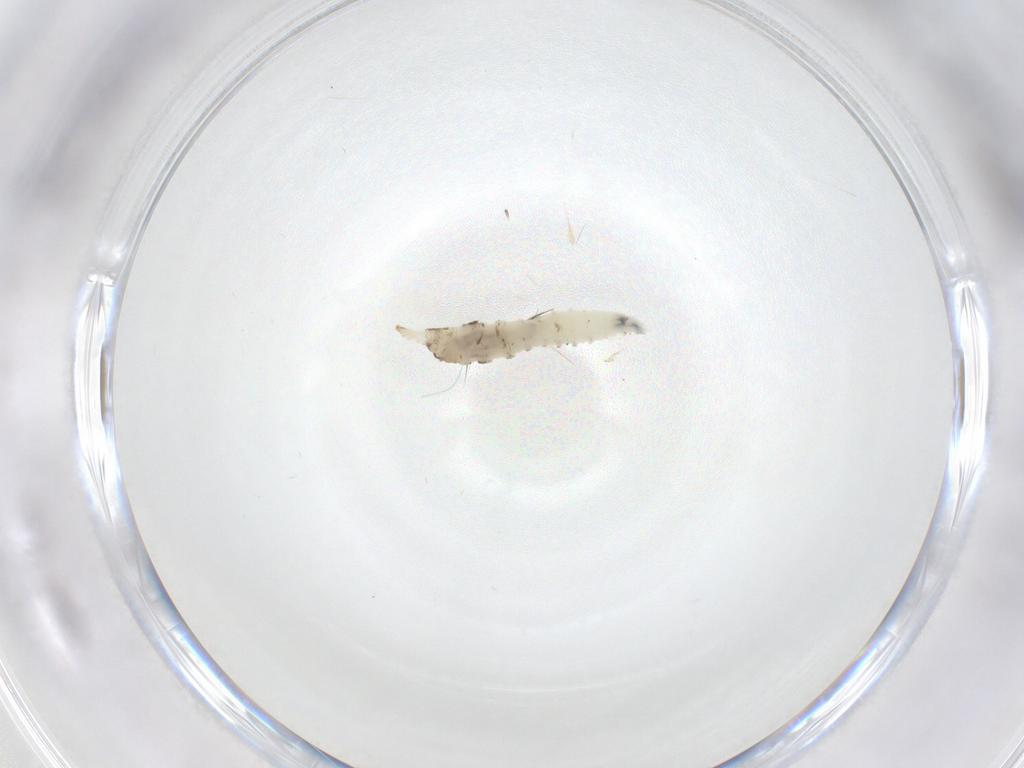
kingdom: Animalia
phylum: Arthropoda
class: Insecta
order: Diptera
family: Drosophilidae
